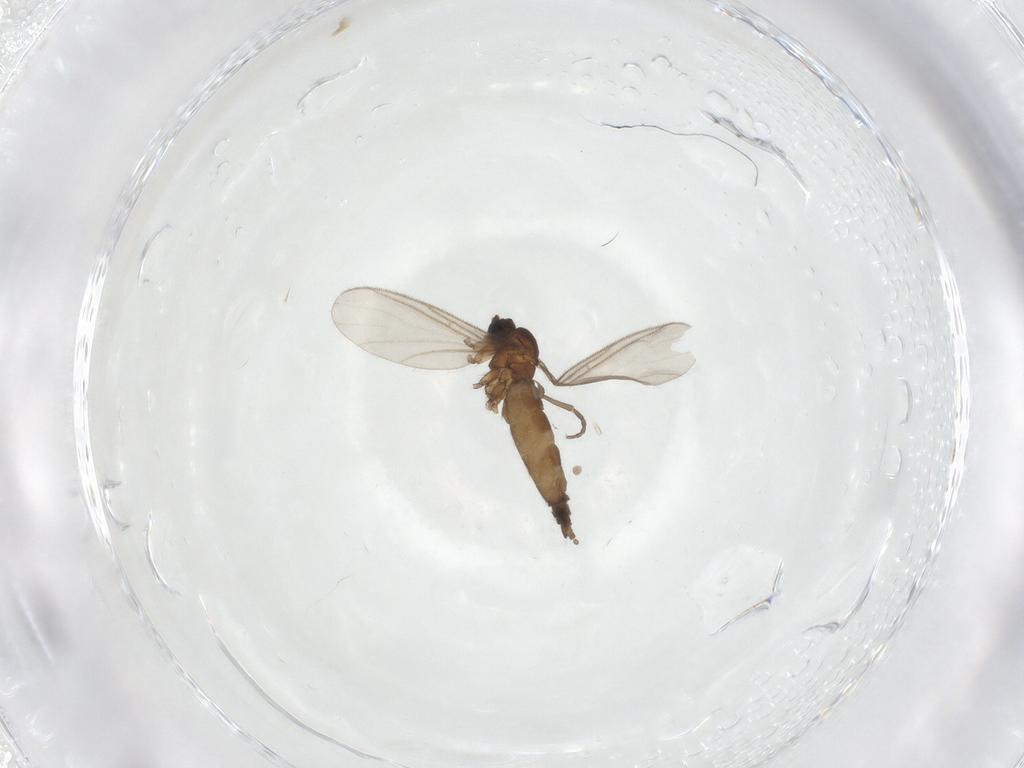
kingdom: Animalia
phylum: Arthropoda
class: Insecta
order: Diptera
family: Sciaridae
